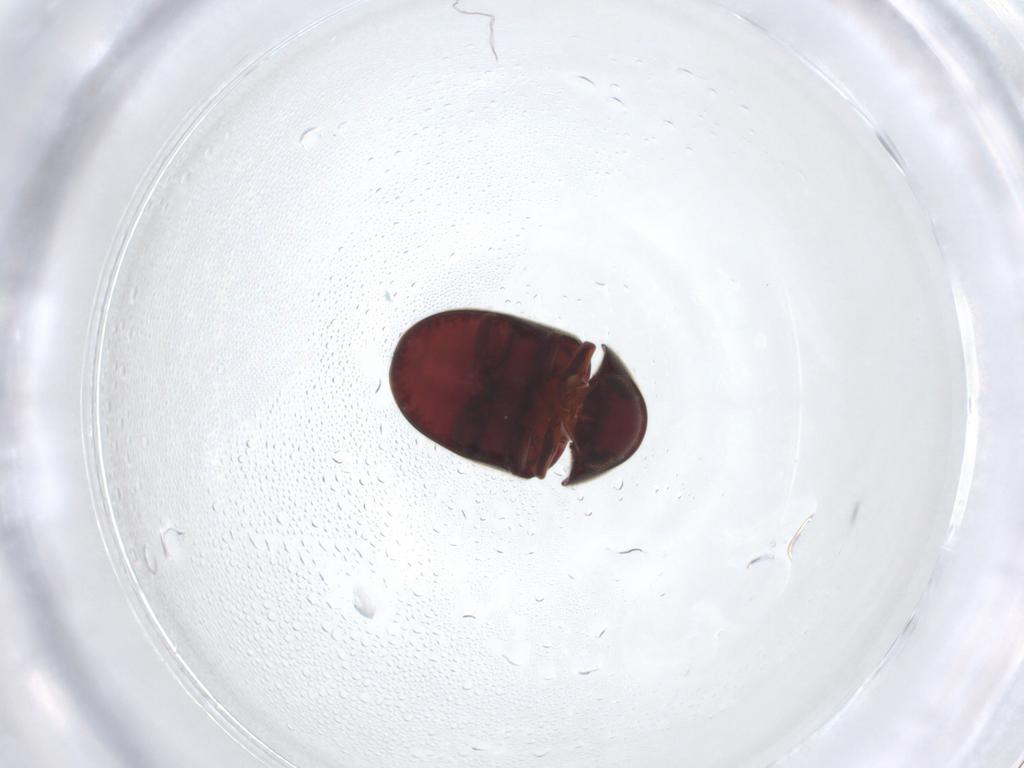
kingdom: Animalia
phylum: Arthropoda
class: Insecta
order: Coleoptera
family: Ptinidae
